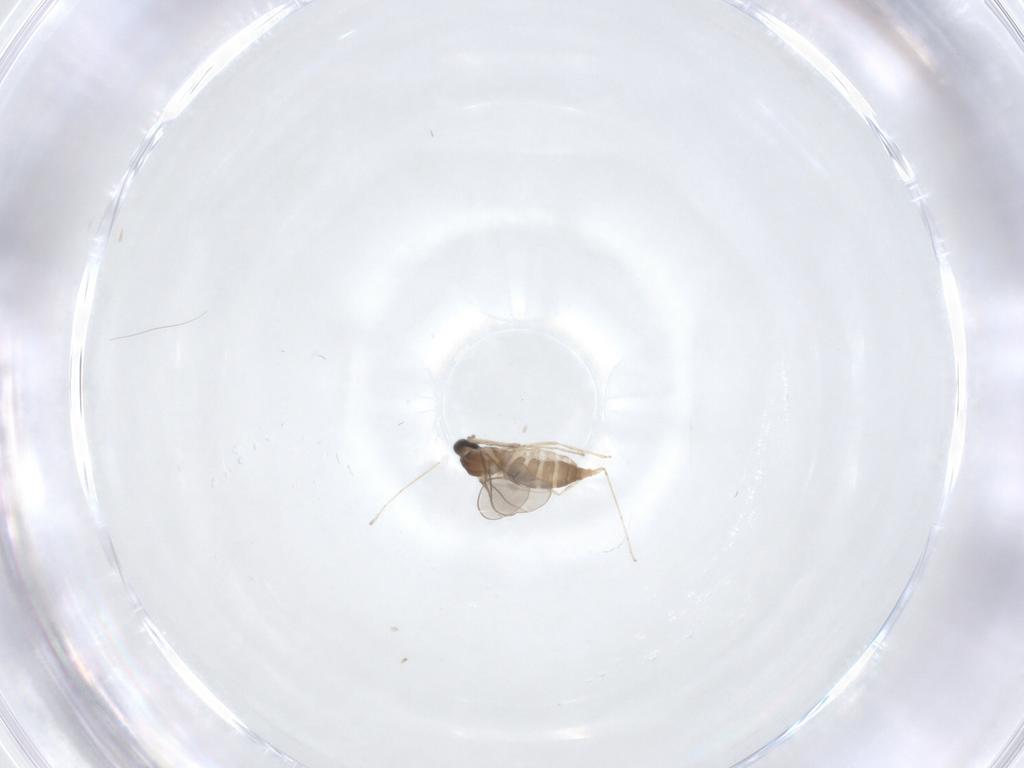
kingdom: Animalia
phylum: Arthropoda
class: Insecta
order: Diptera
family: Cecidomyiidae
